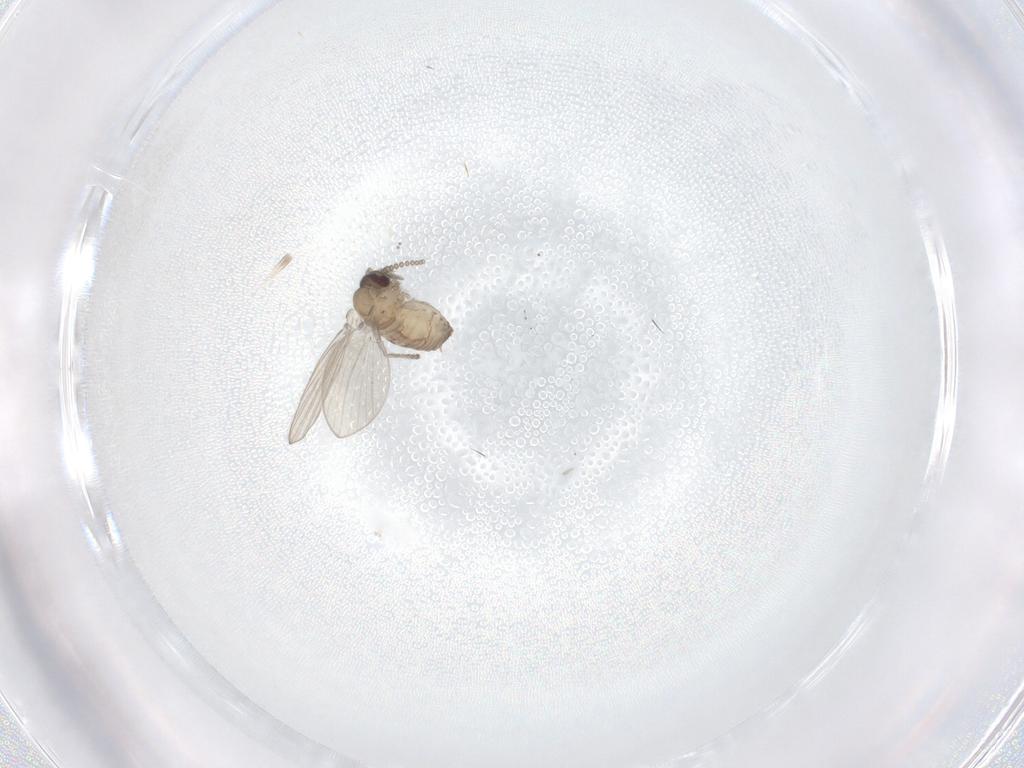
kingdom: Animalia
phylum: Arthropoda
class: Insecta
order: Diptera
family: Psychodidae
